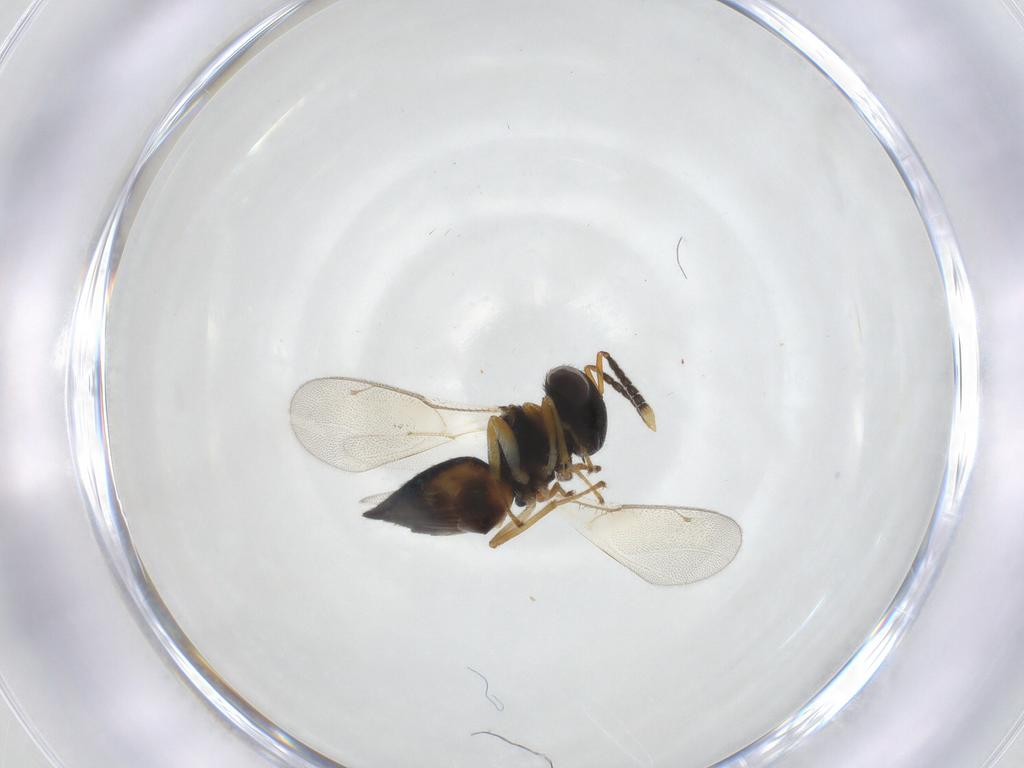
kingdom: Animalia
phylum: Arthropoda
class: Insecta
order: Hymenoptera
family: Pteromalidae
